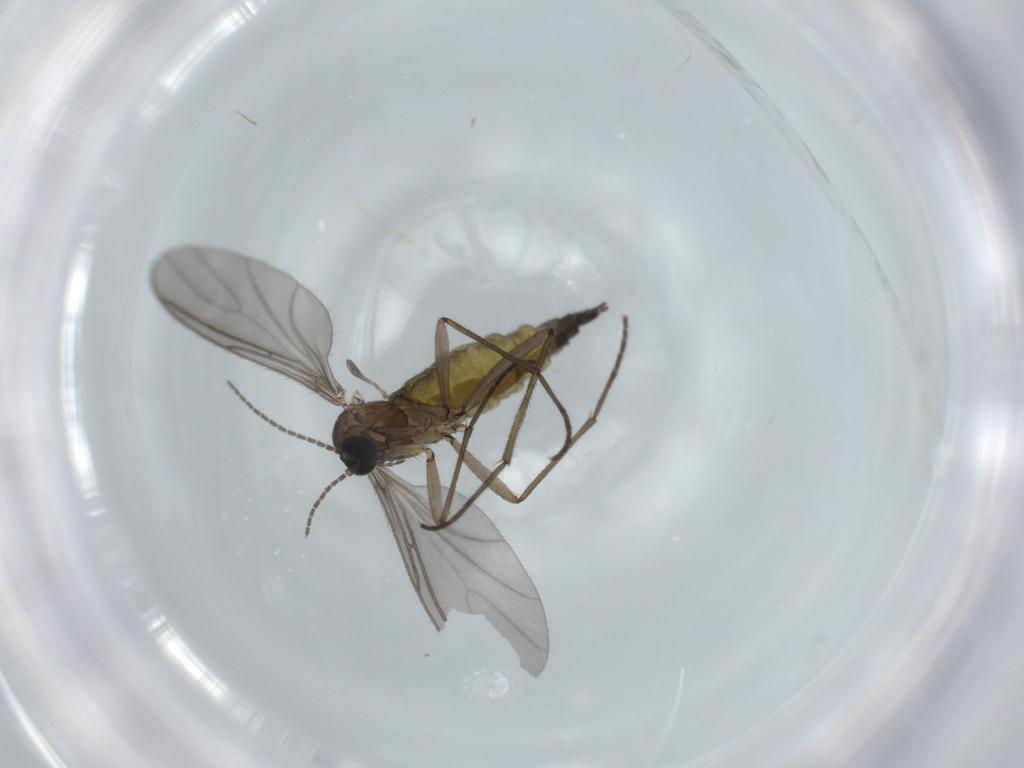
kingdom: Animalia
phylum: Arthropoda
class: Insecta
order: Diptera
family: Sciaridae
